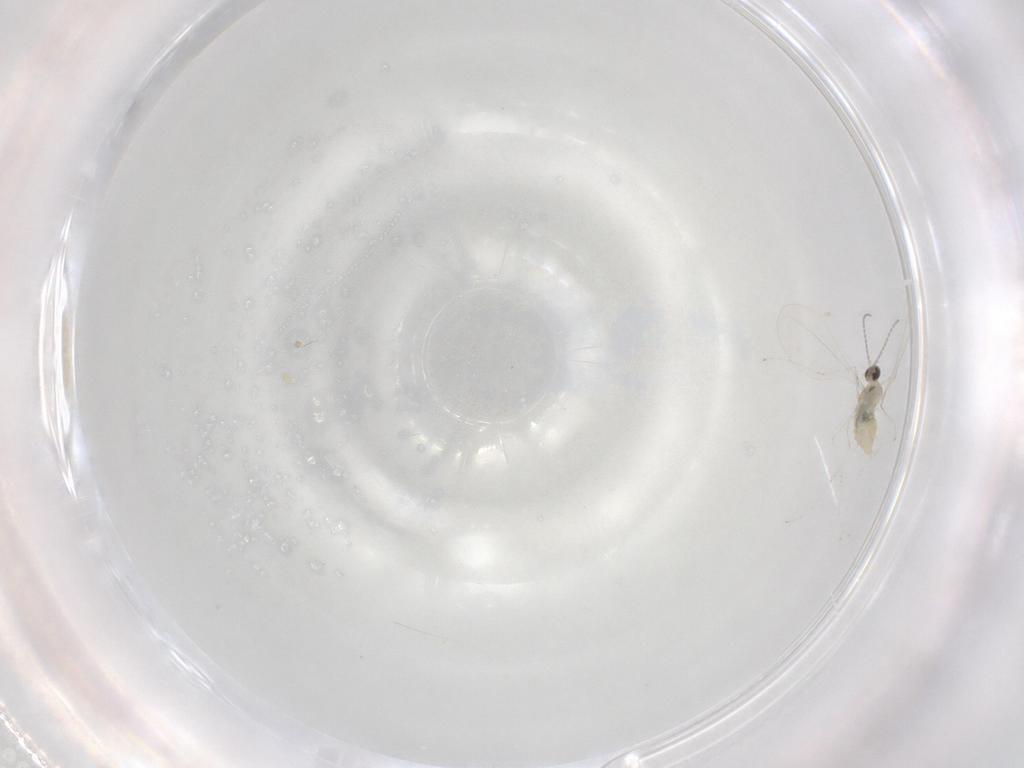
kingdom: Animalia
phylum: Arthropoda
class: Insecta
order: Diptera
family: Cecidomyiidae
